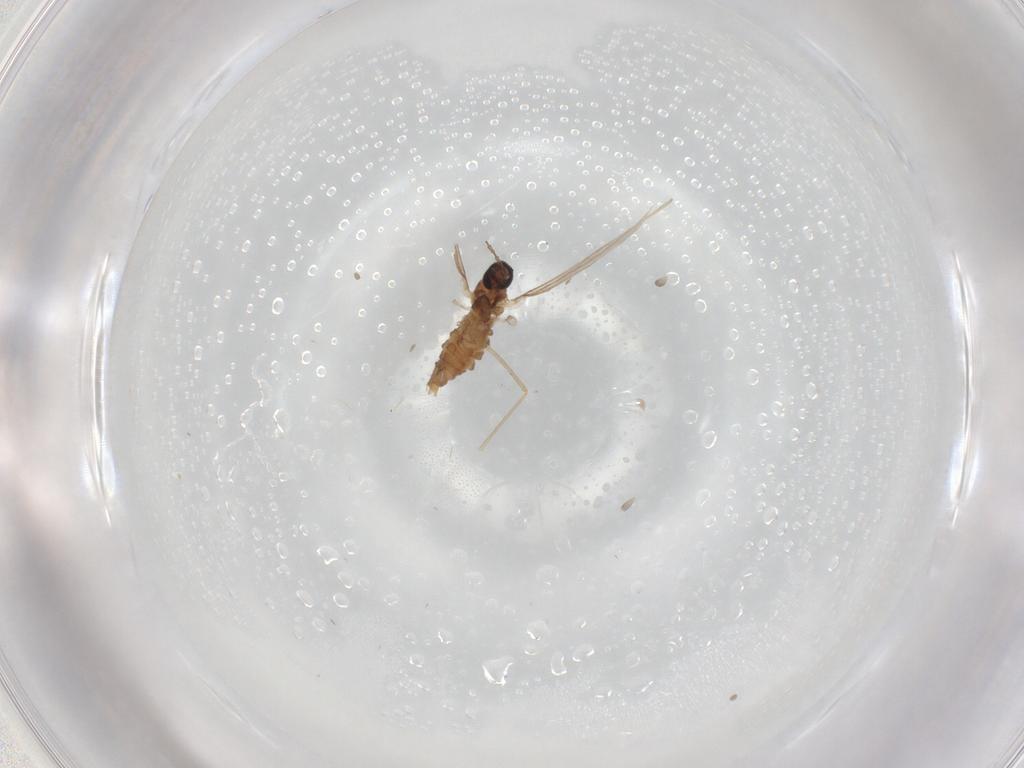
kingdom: Animalia
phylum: Arthropoda
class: Insecta
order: Diptera
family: Cecidomyiidae
